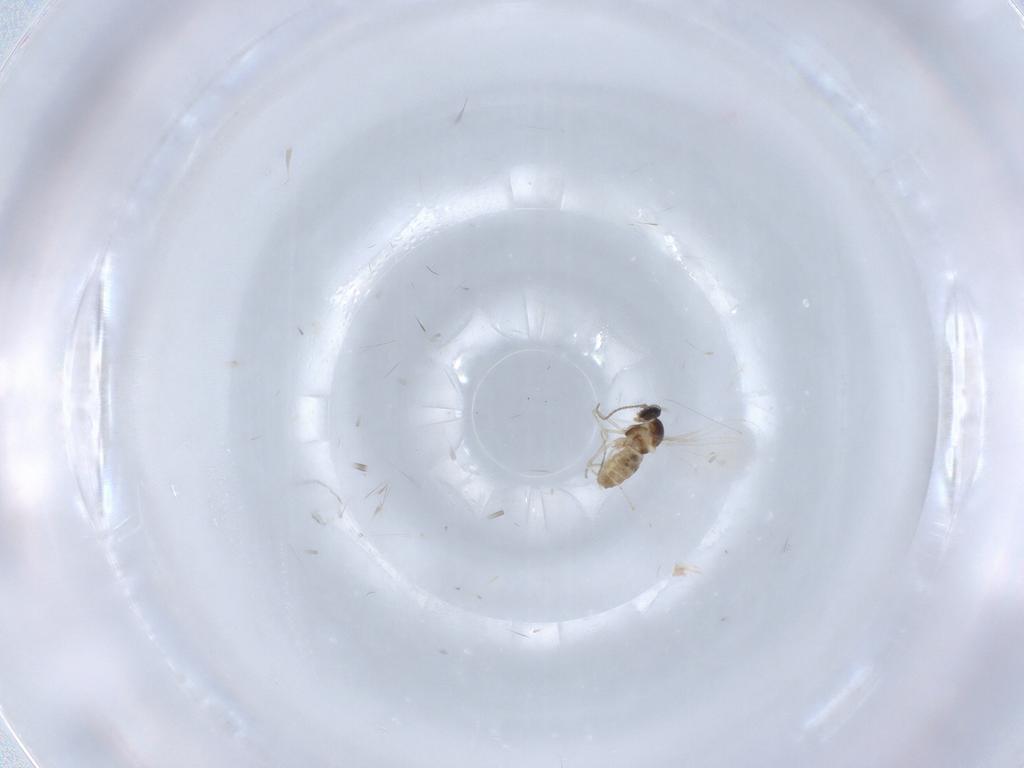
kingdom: Animalia
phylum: Arthropoda
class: Insecta
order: Diptera
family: Cecidomyiidae
